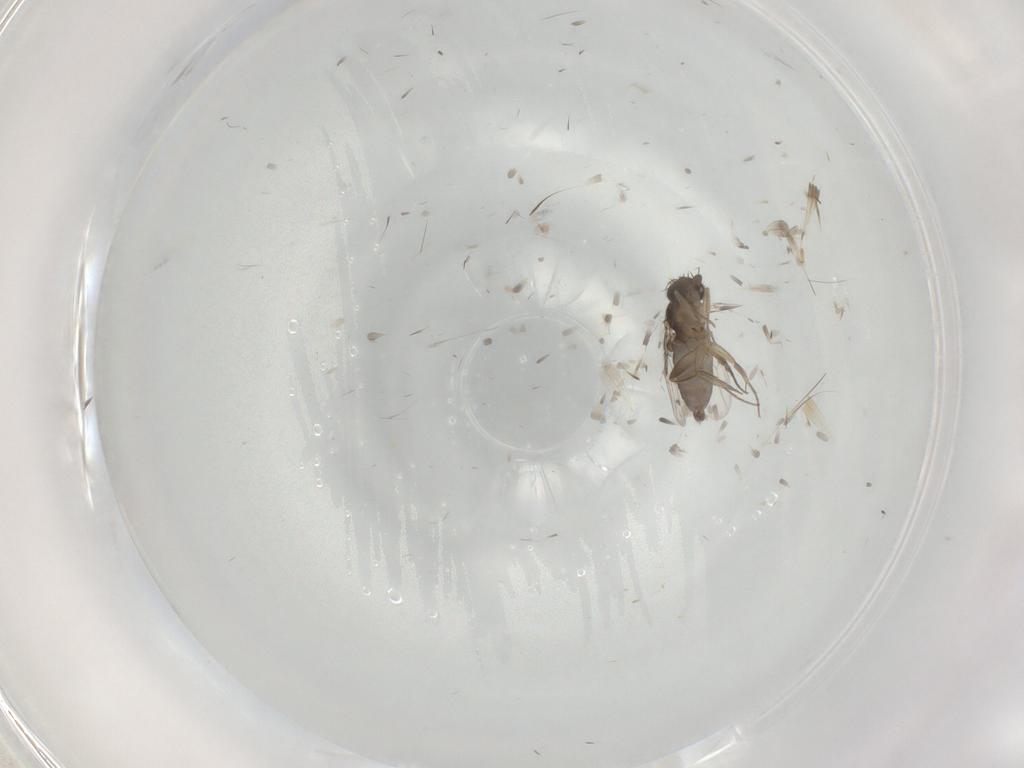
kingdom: Animalia
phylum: Arthropoda
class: Insecta
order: Diptera
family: Phoridae
